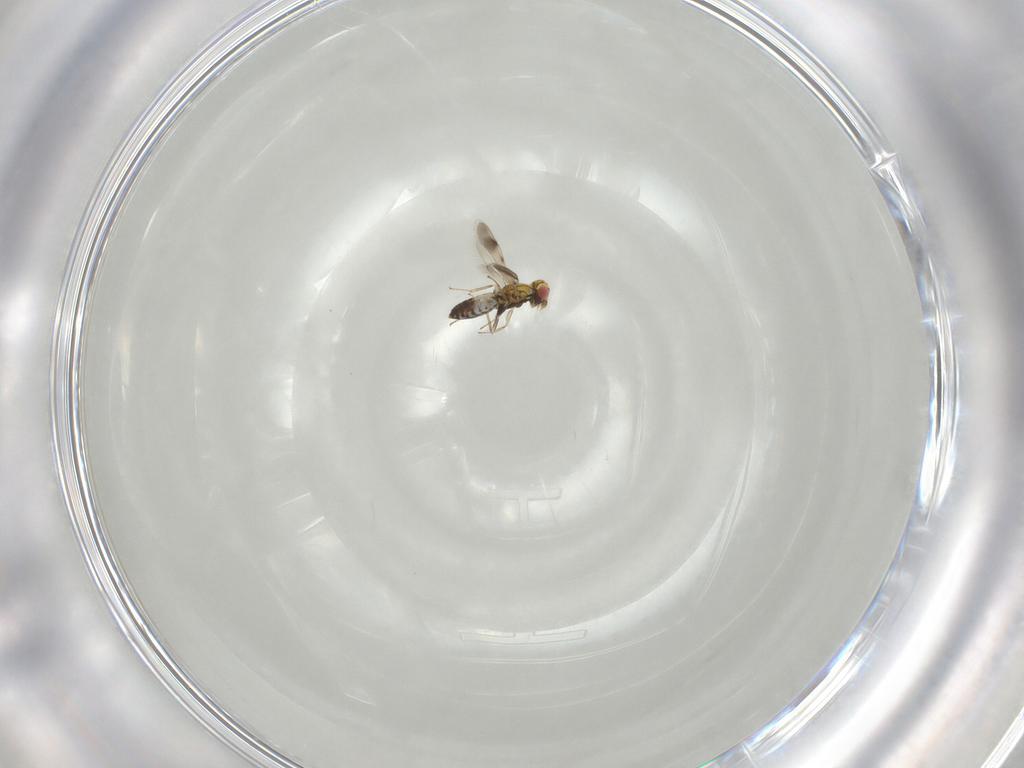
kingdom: Animalia
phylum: Arthropoda
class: Insecta
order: Hymenoptera
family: Eulophidae
